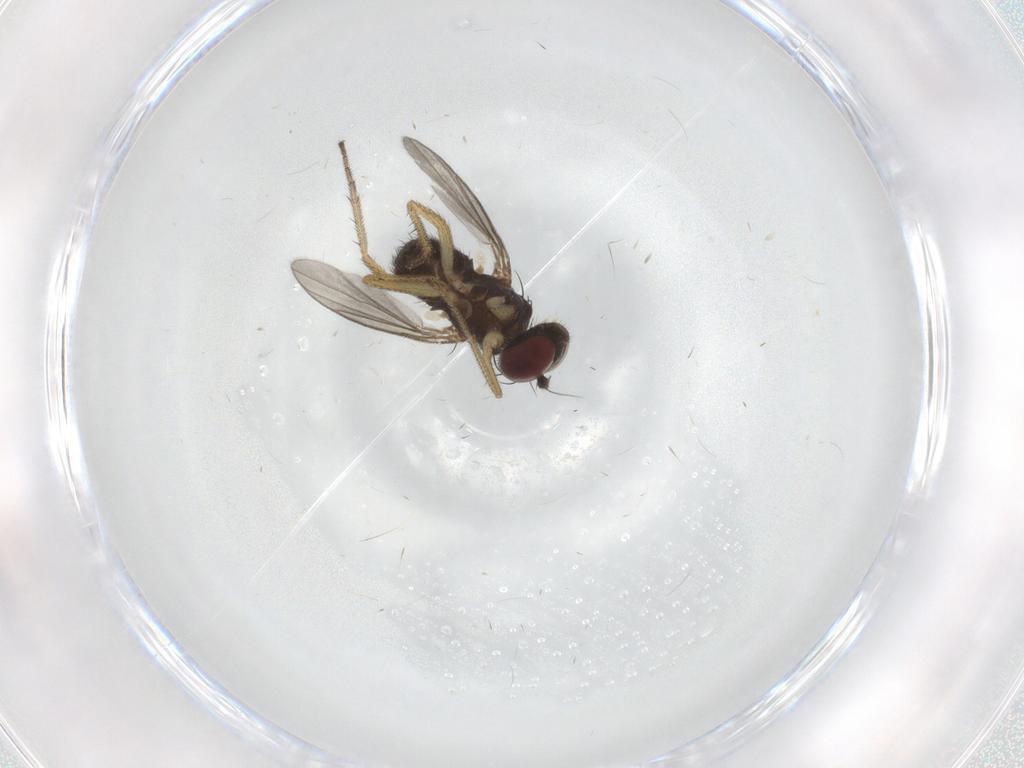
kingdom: Animalia
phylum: Arthropoda
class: Insecta
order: Diptera
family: Dolichopodidae
